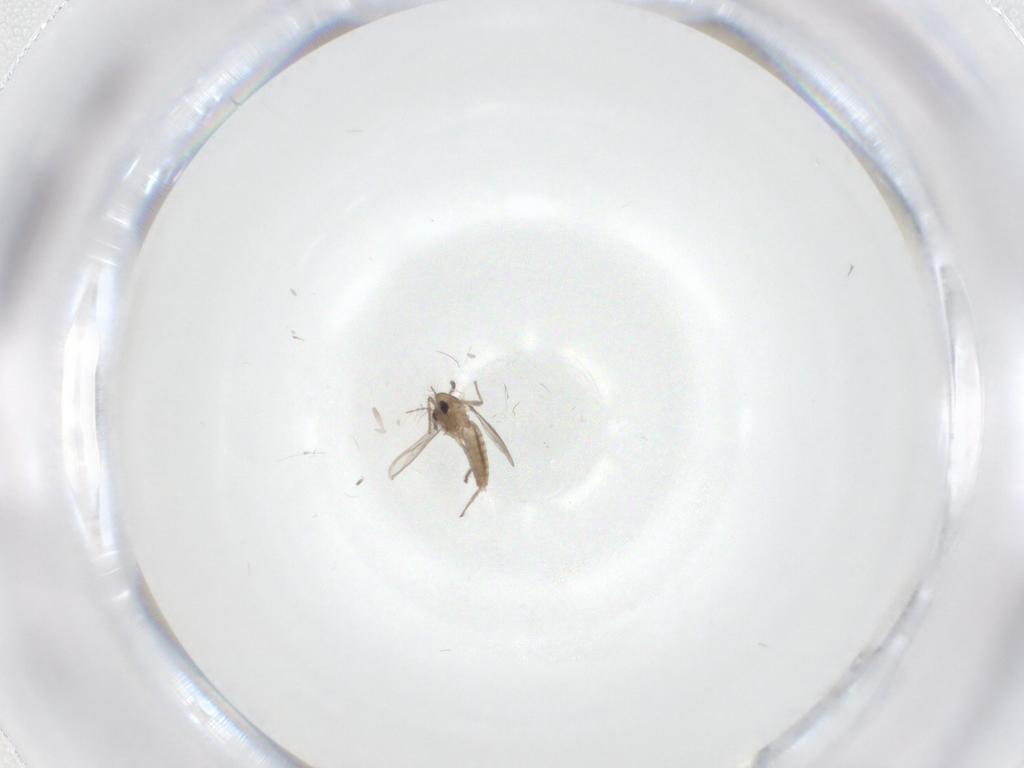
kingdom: Animalia
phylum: Arthropoda
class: Insecta
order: Diptera
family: Chironomidae
